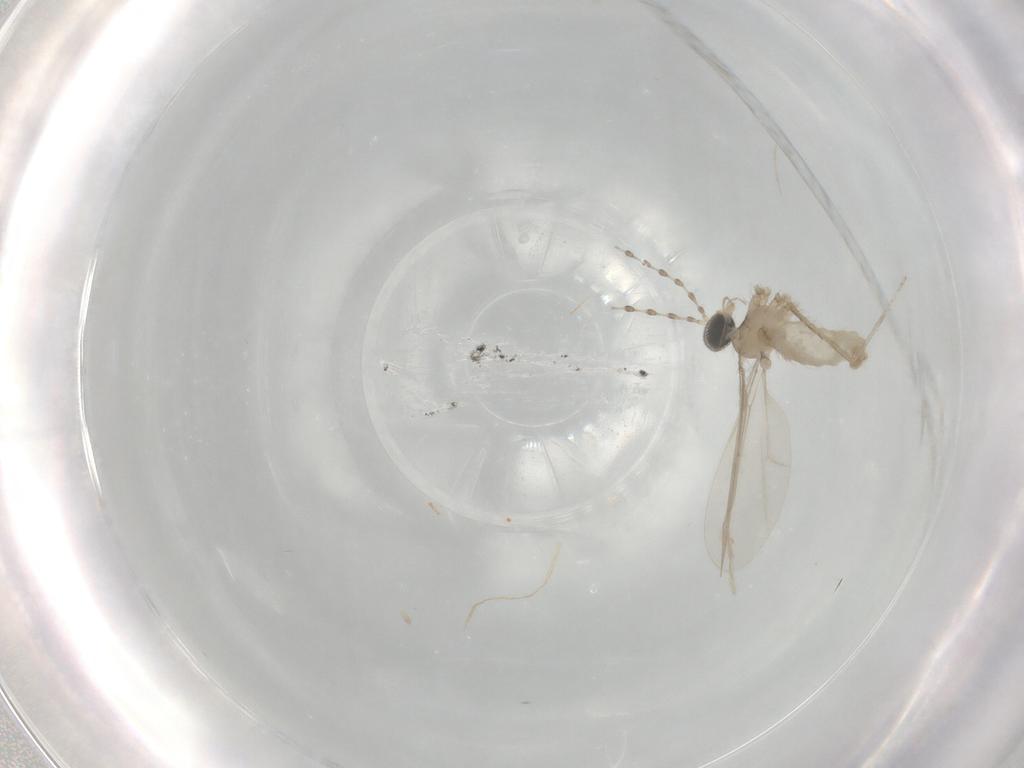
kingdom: Animalia
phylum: Arthropoda
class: Insecta
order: Diptera
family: Cecidomyiidae
